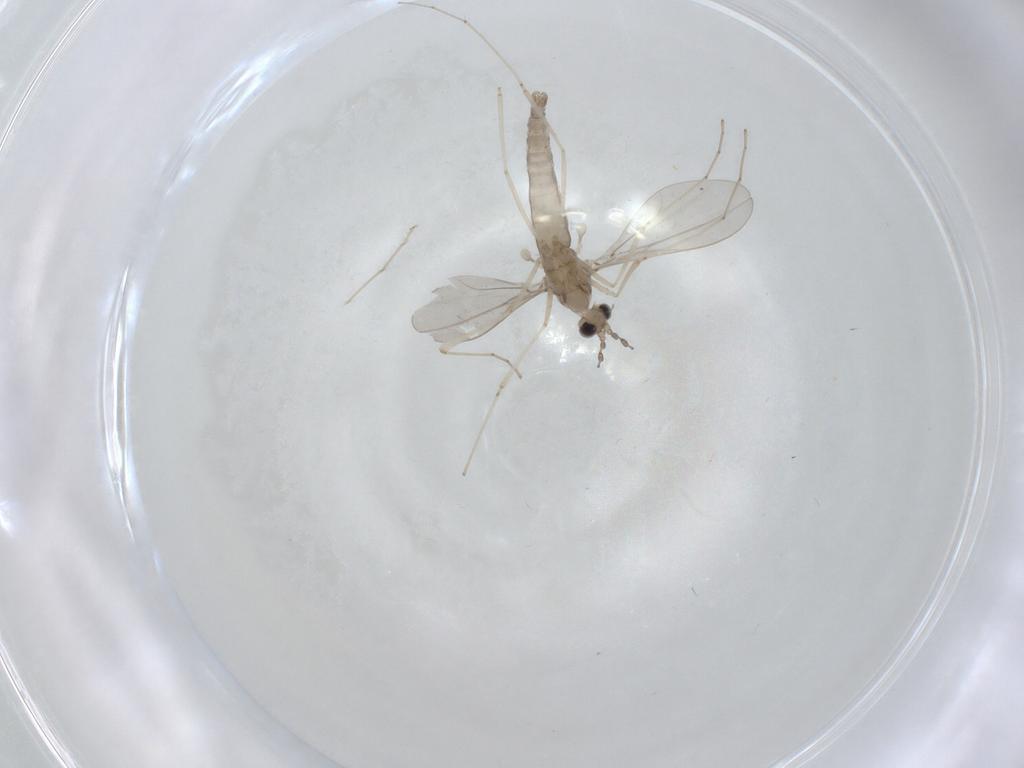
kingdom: Animalia
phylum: Arthropoda
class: Insecta
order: Diptera
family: Cecidomyiidae
